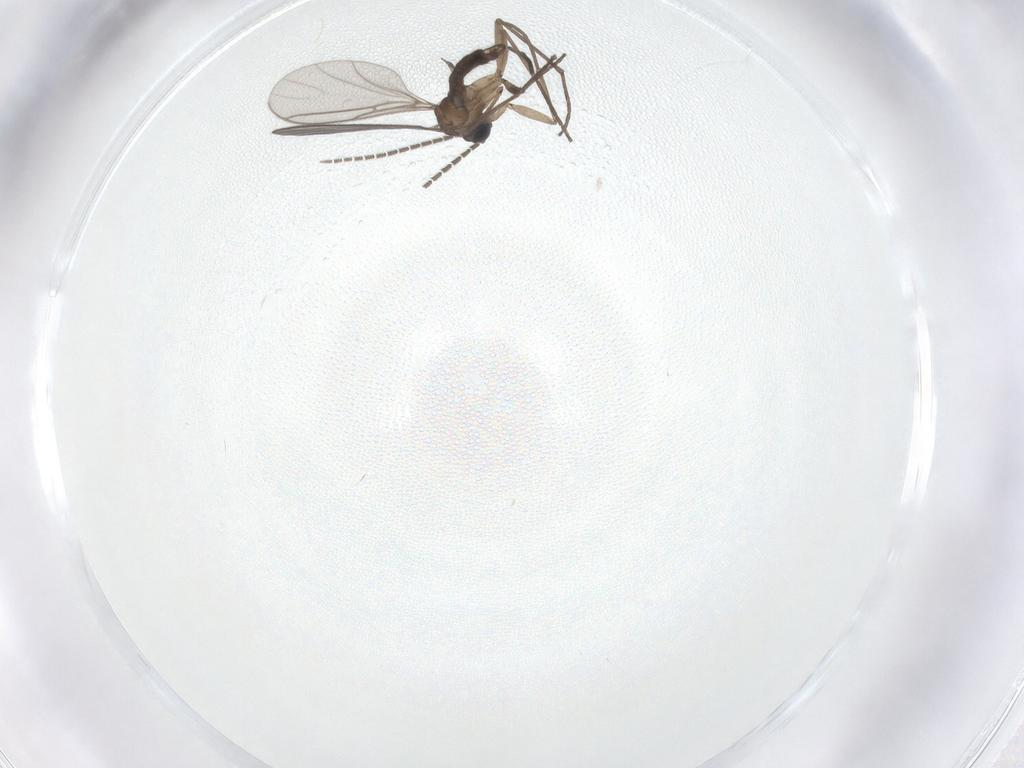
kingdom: Animalia
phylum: Arthropoda
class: Insecta
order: Diptera
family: Sciaridae
